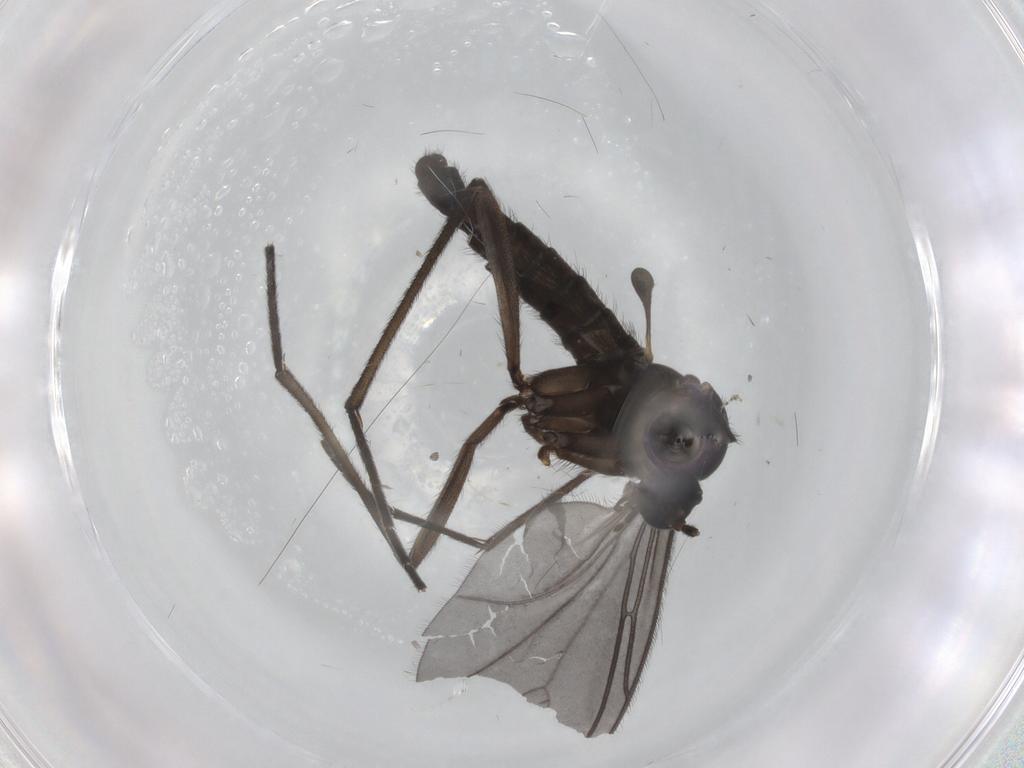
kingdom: Animalia
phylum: Arthropoda
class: Insecta
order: Diptera
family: Sciaridae
